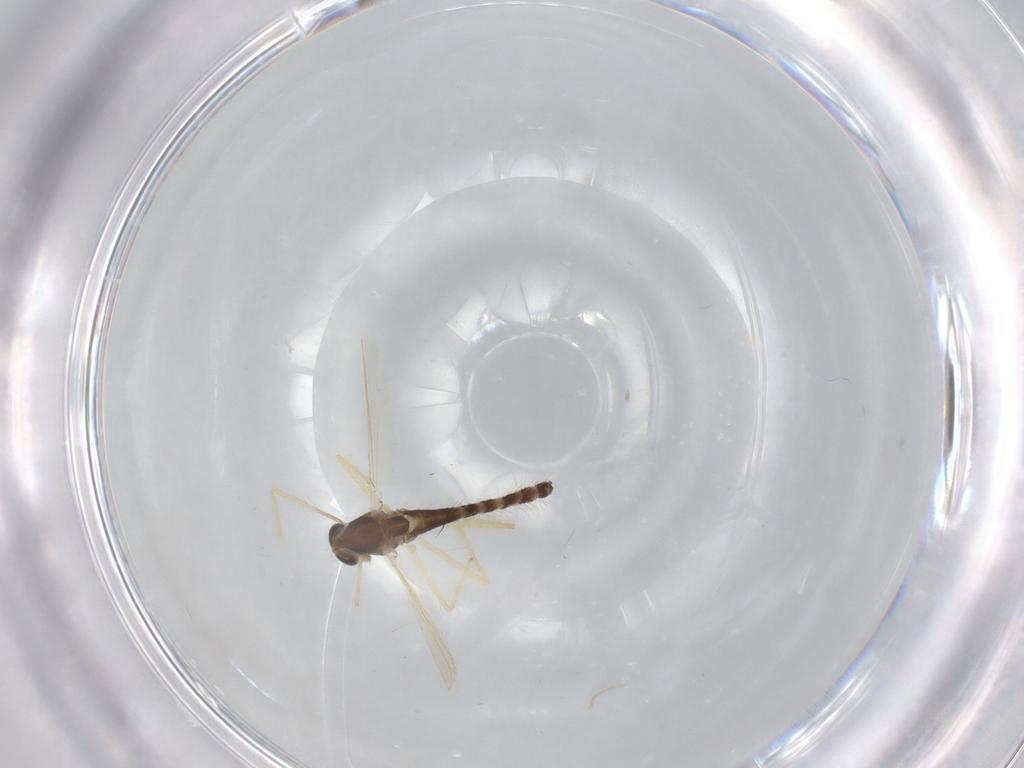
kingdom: Animalia
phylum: Arthropoda
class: Insecta
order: Diptera
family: Chironomidae
